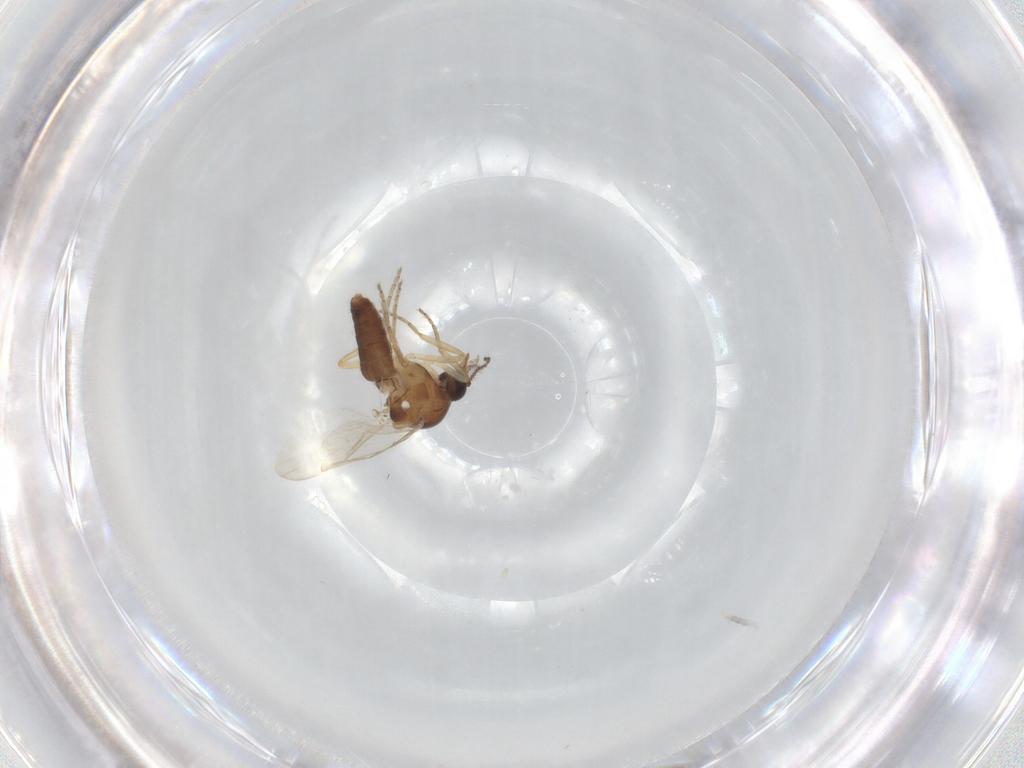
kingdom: Animalia
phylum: Arthropoda
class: Insecta
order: Diptera
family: Ceratopogonidae
